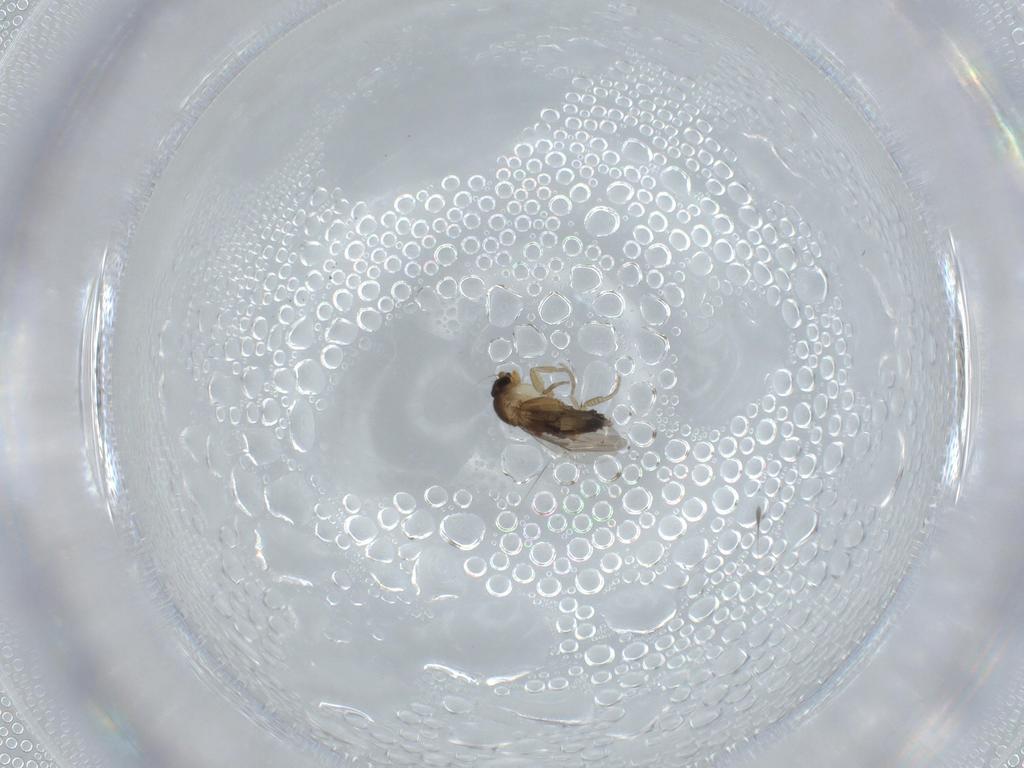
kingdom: Animalia
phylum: Arthropoda
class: Insecta
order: Diptera
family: Phoridae
